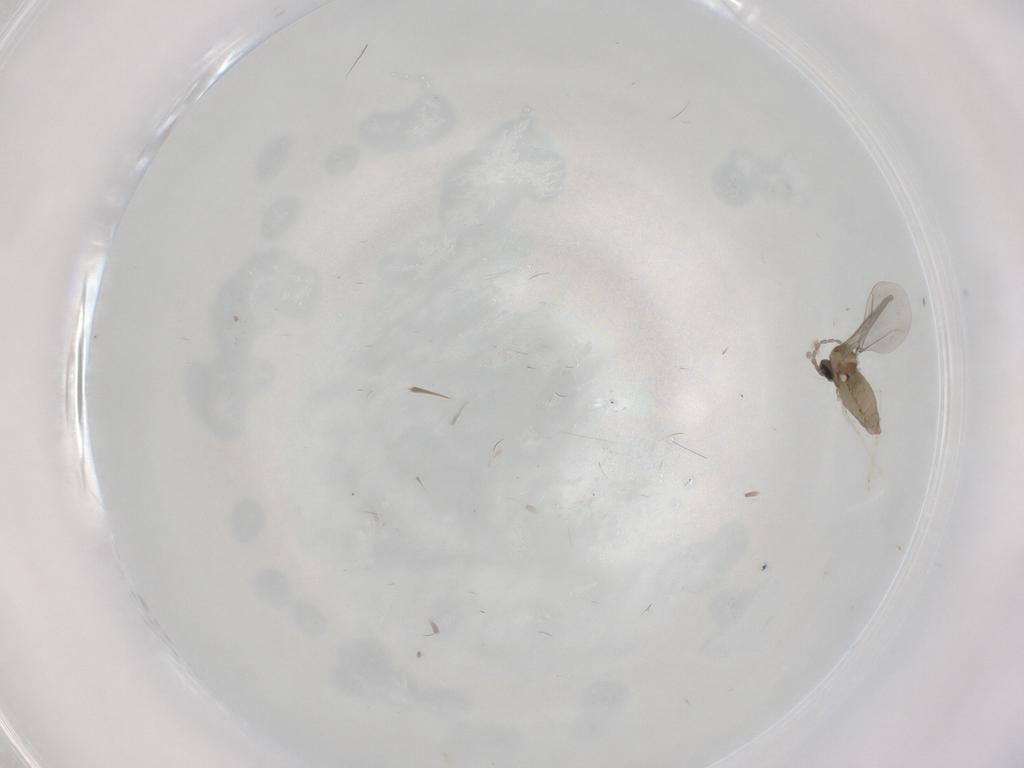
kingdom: Animalia
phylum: Arthropoda
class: Insecta
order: Diptera
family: Cecidomyiidae
